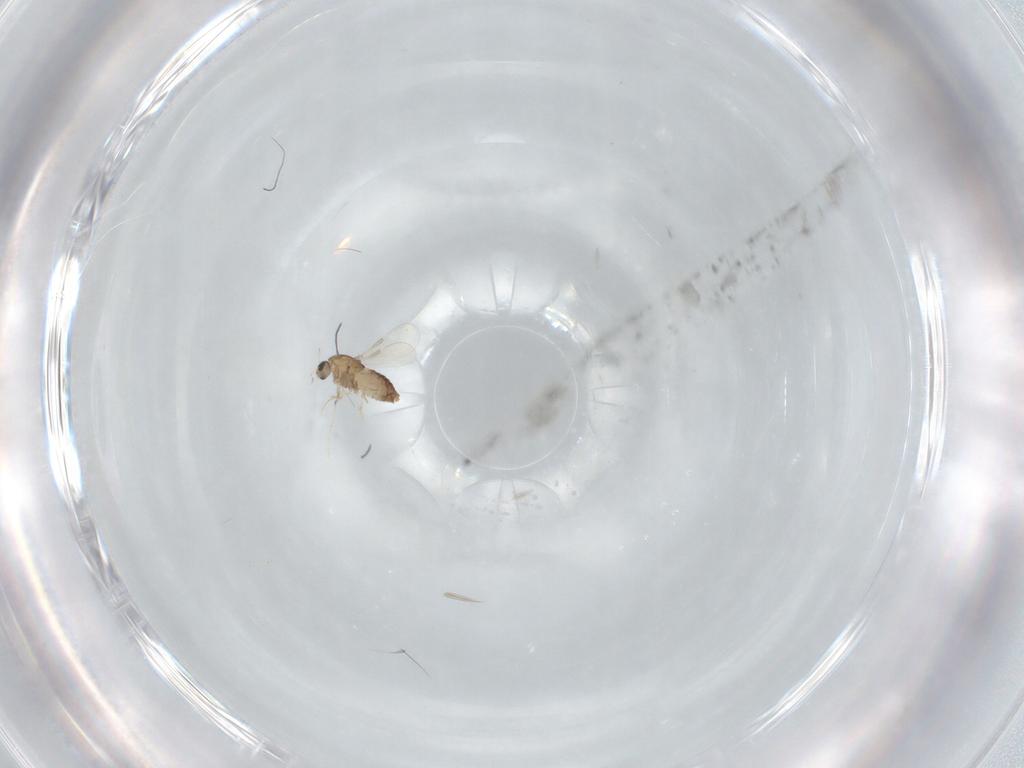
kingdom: Animalia
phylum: Arthropoda
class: Insecta
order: Diptera
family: Chironomidae
